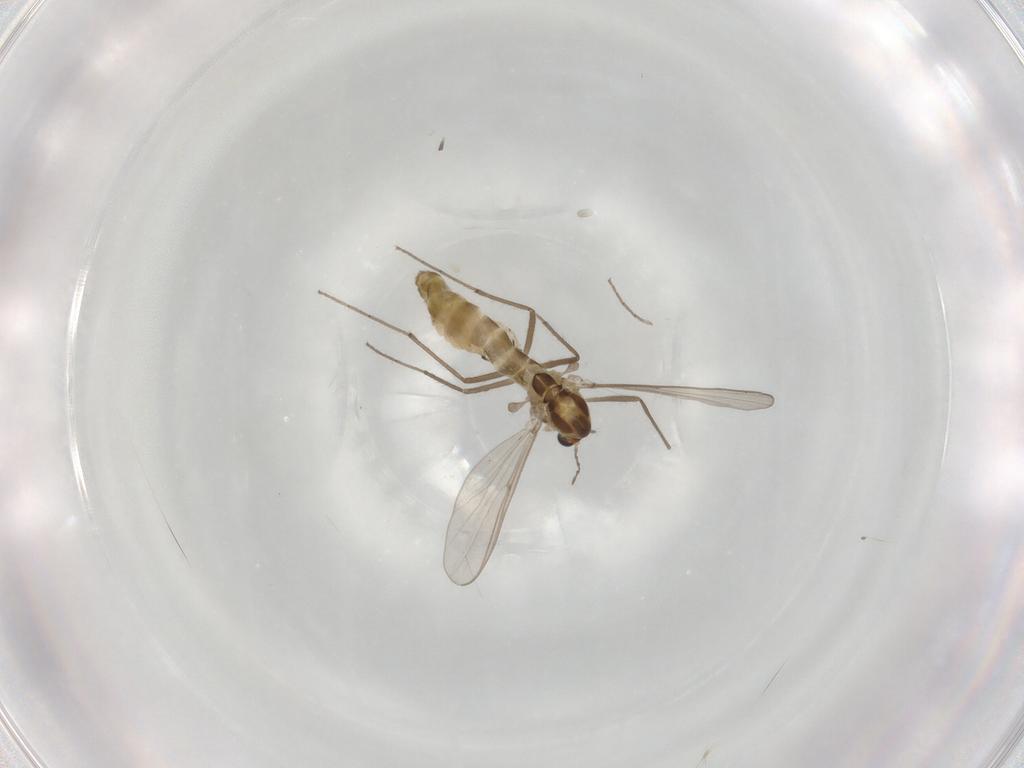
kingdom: Animalia
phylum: Arthropoda
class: Insecta
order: Diptera
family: Chironomidae
